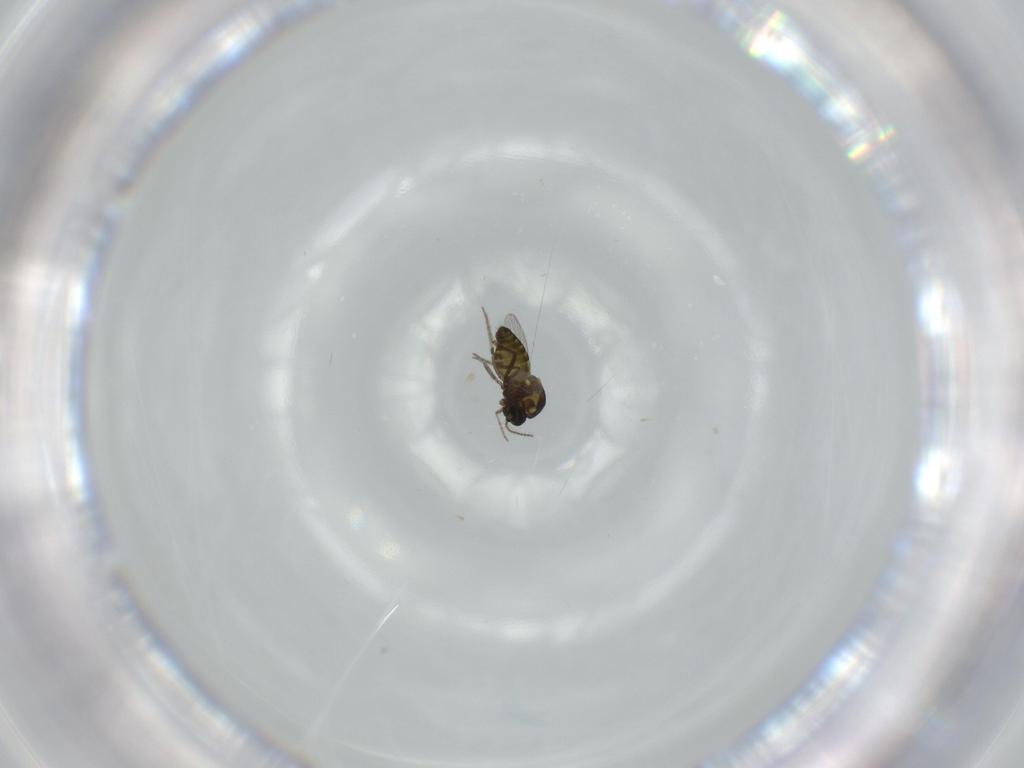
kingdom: Animalia
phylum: Arthropoda
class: Insecta
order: Diptera
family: Ceratopogonidae
